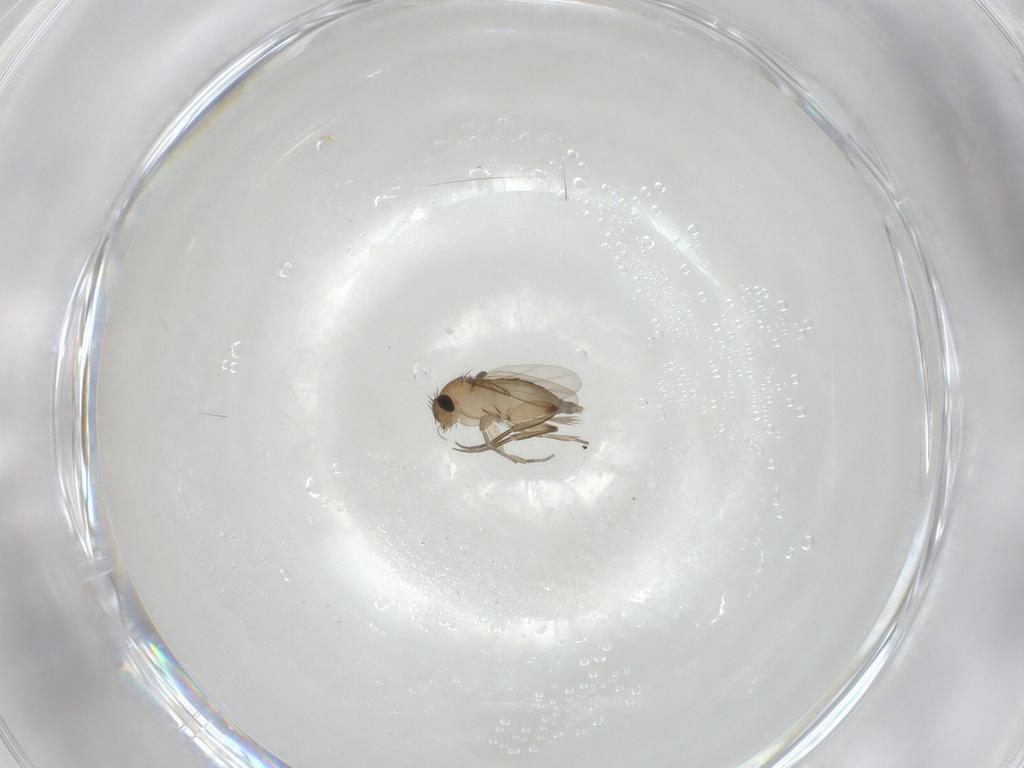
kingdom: Animalia
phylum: Arthropoda
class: Insecta
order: Diptera
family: Phoridae
